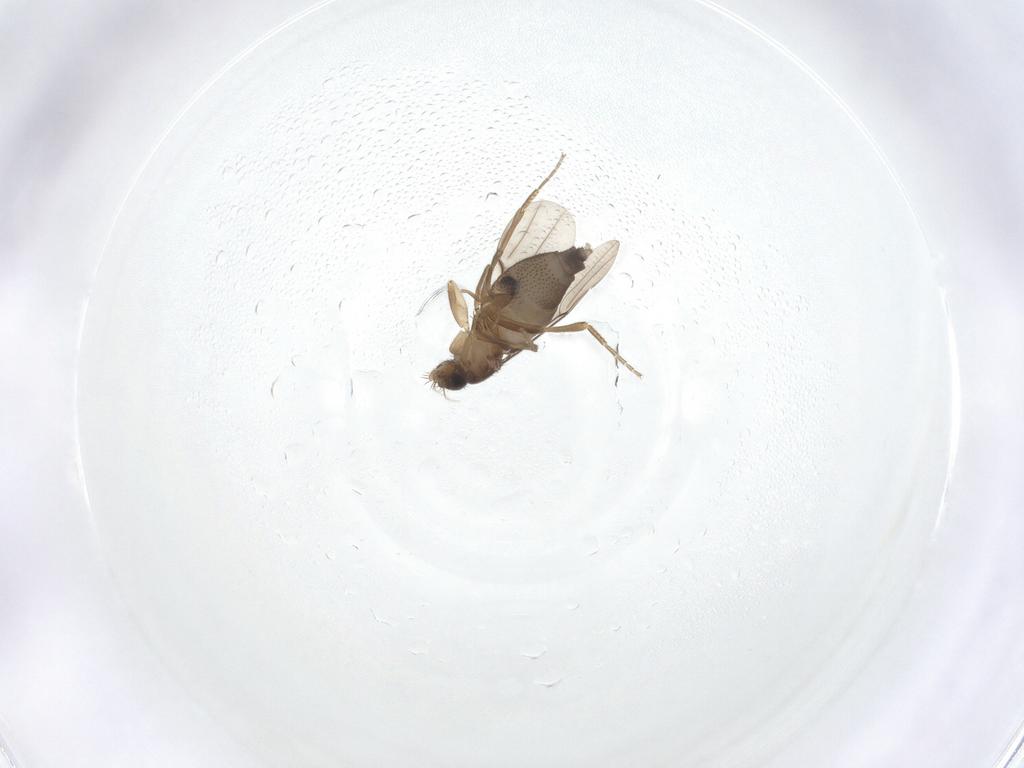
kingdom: Animalia
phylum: Arthropoda
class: Insecta
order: Diptera
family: Phoridae
